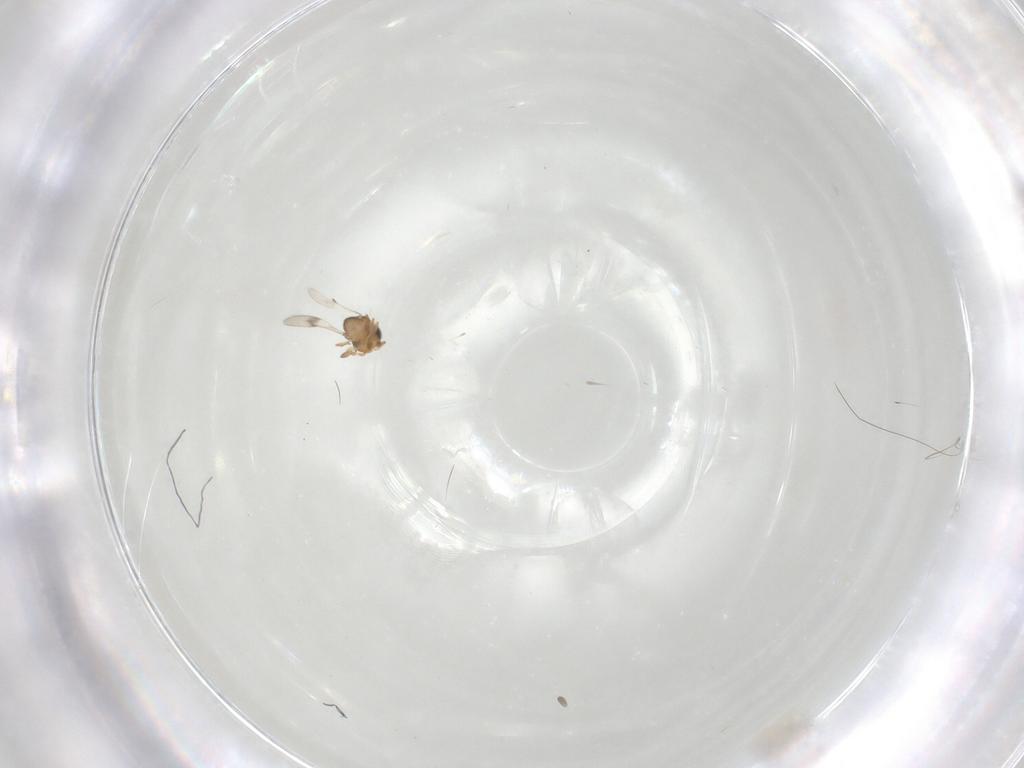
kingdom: Animalia
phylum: Arthropoda
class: Insecta
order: Hymenoptera
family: Scelionidae
